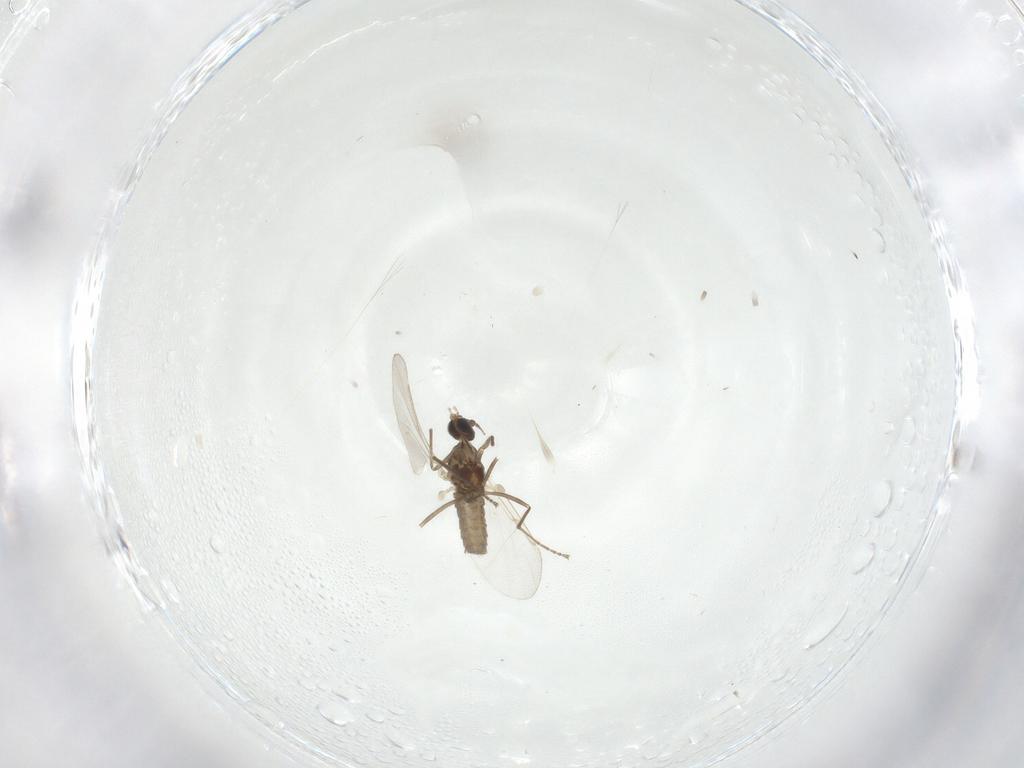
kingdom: Animalia
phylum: Arthropoda
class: Insecta
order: Diptera
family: Cecidomyiidae
